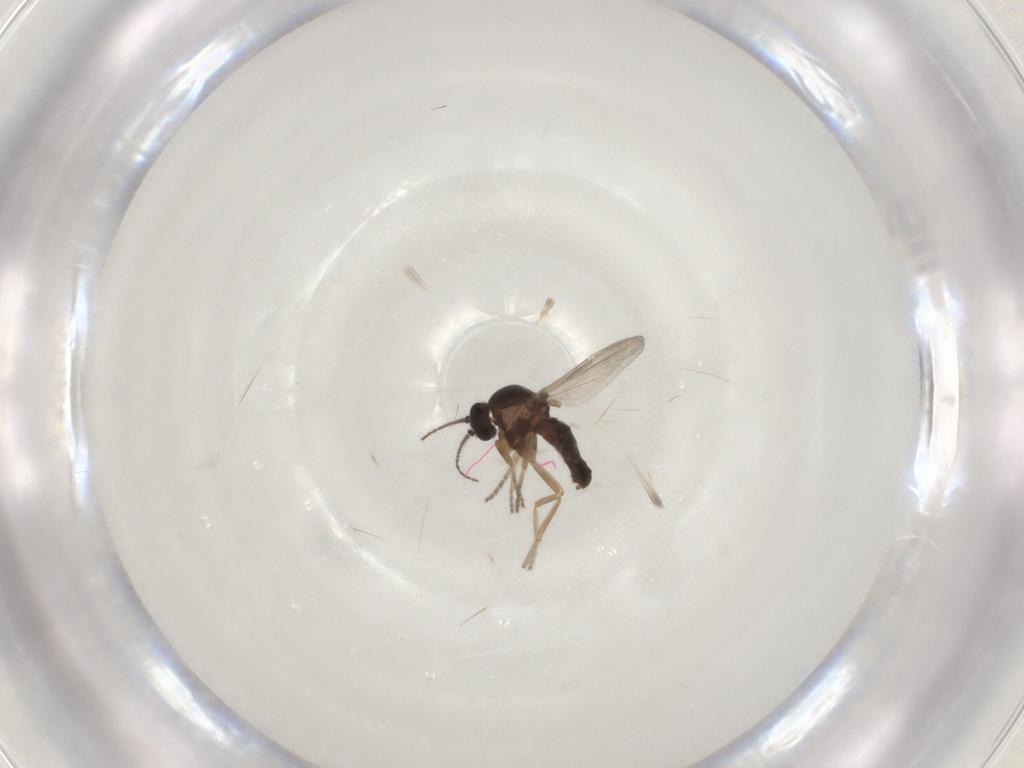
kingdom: Animalia
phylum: Arthropoda
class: Insecta
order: Diptera
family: Ceratopogonidae
